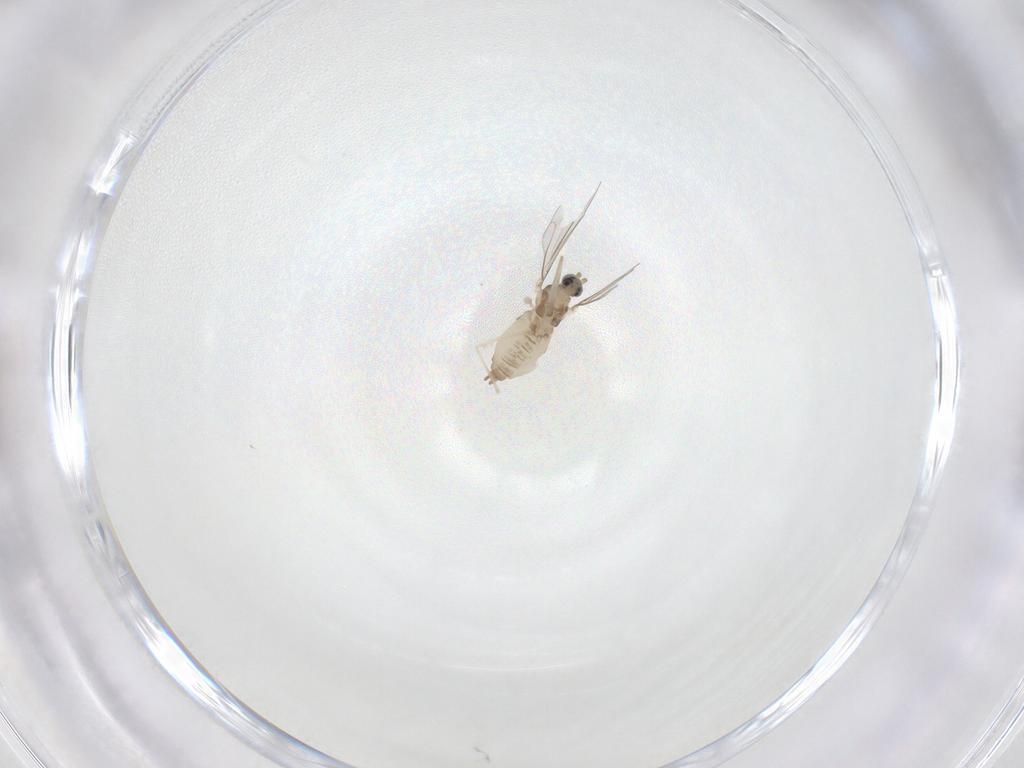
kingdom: Animalia
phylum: Arthropoda
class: Insecta
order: Diptera
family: Cecidomyiidae
